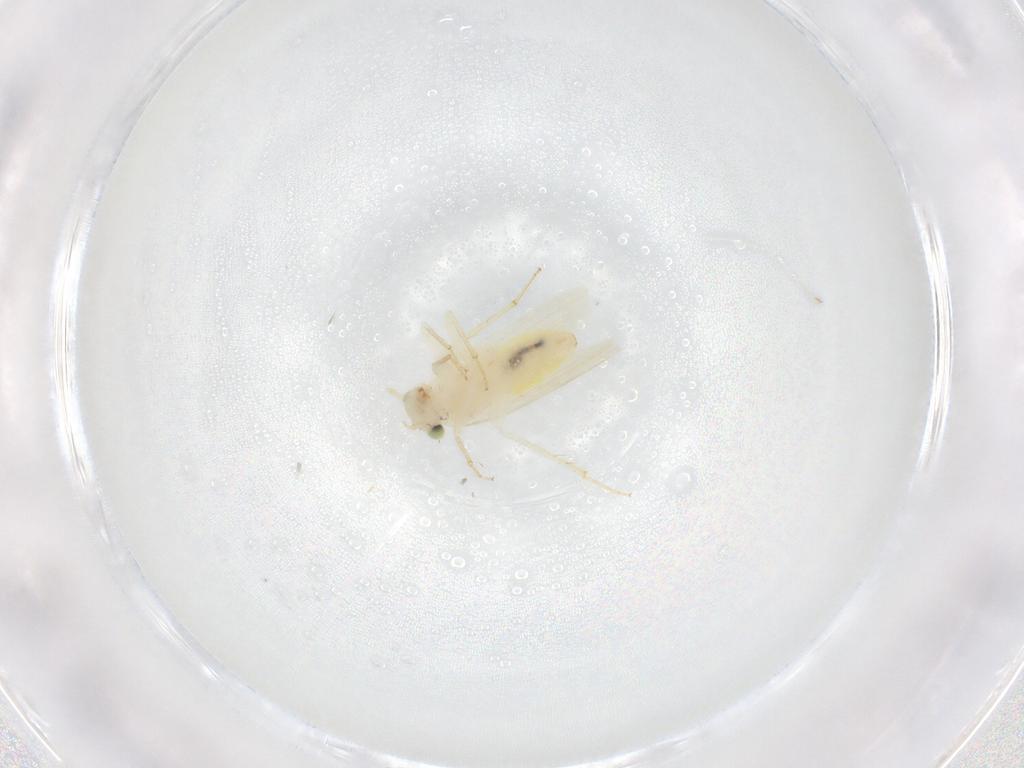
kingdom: Animalia
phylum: Arthropoda
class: Insecta
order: Psocodea
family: Lepidopsocidae
